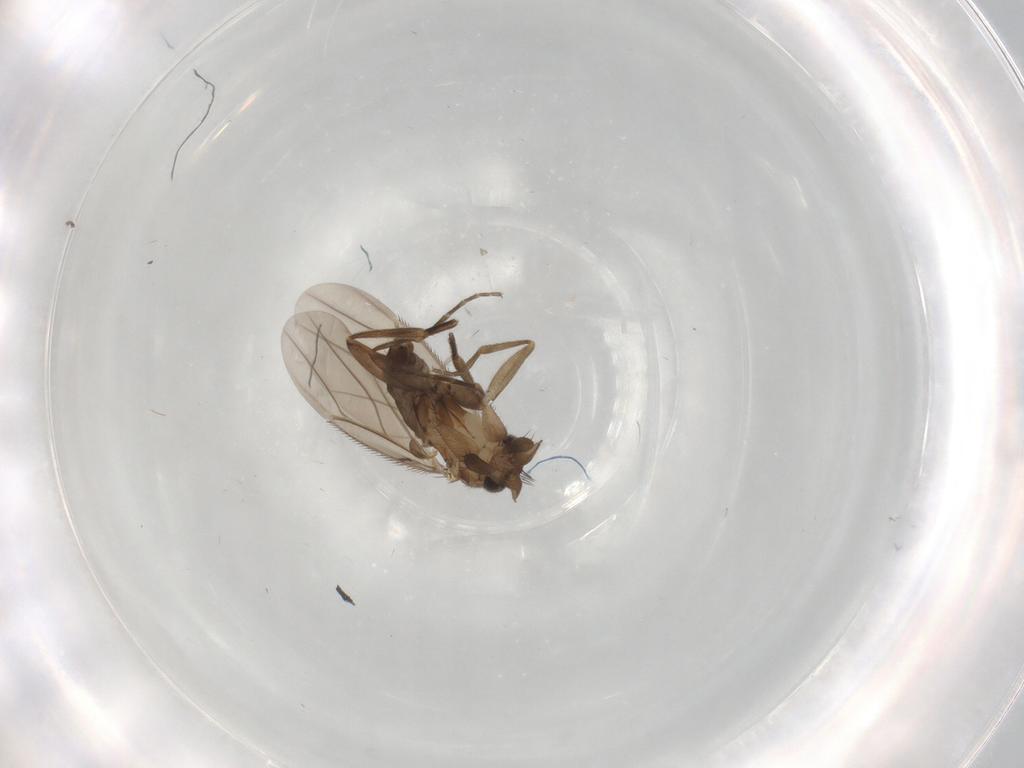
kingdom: Animalia
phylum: Arthropoda
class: Insecta
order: Diptera
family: Phoridae
